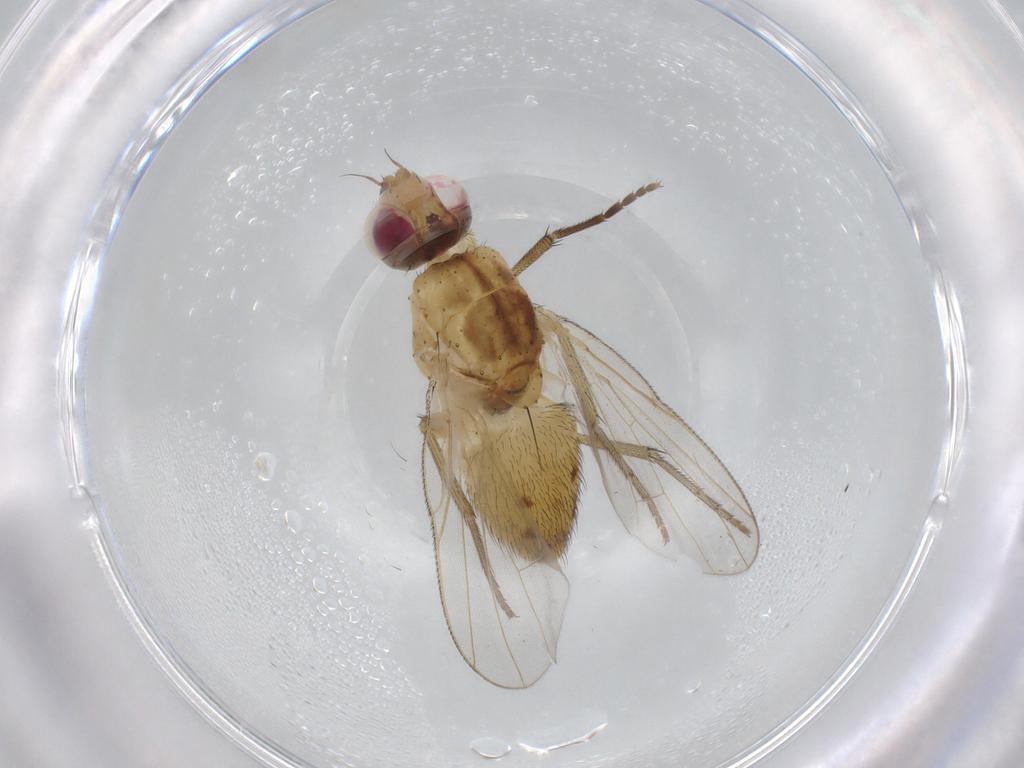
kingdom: Animalia
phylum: Arthropoda
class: Insecta
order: Diptera
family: Muscidae
